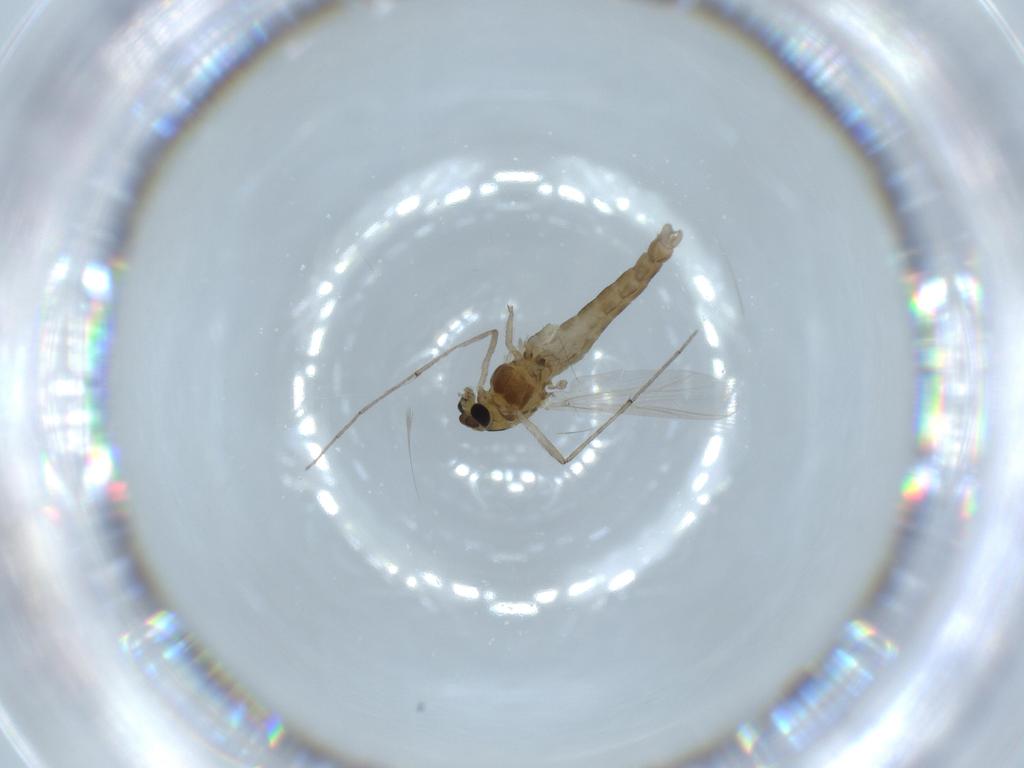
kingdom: Animalia
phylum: Arthropoda
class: Insecta
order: Diptera
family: Chironomidae
